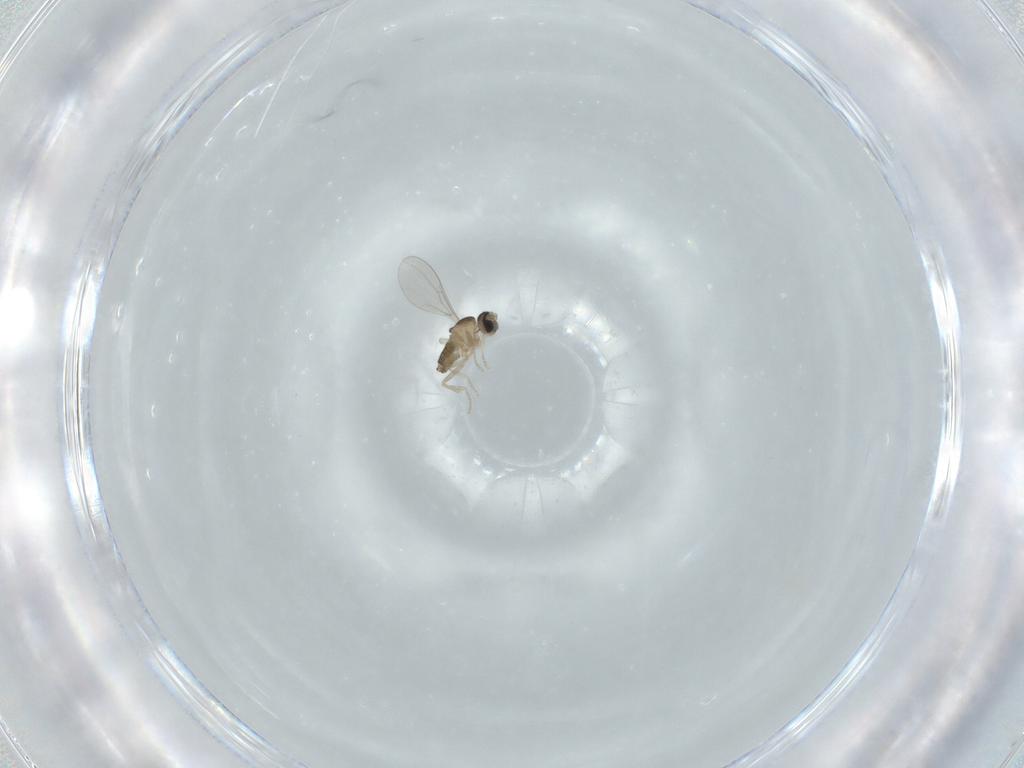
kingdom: Animalia
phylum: Arthropoda
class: Insecta
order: Diptera
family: Cecidomyiidae
